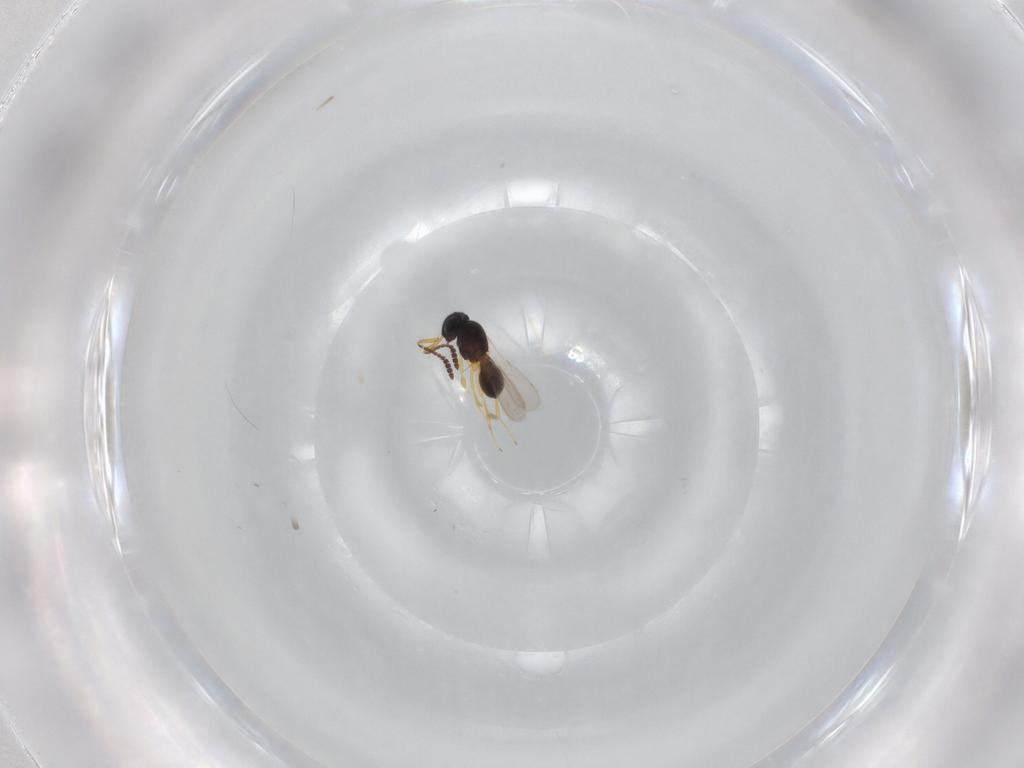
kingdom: Animalia
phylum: Arthropoda
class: Insecta
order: Hymenoptera
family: Scelionidae
